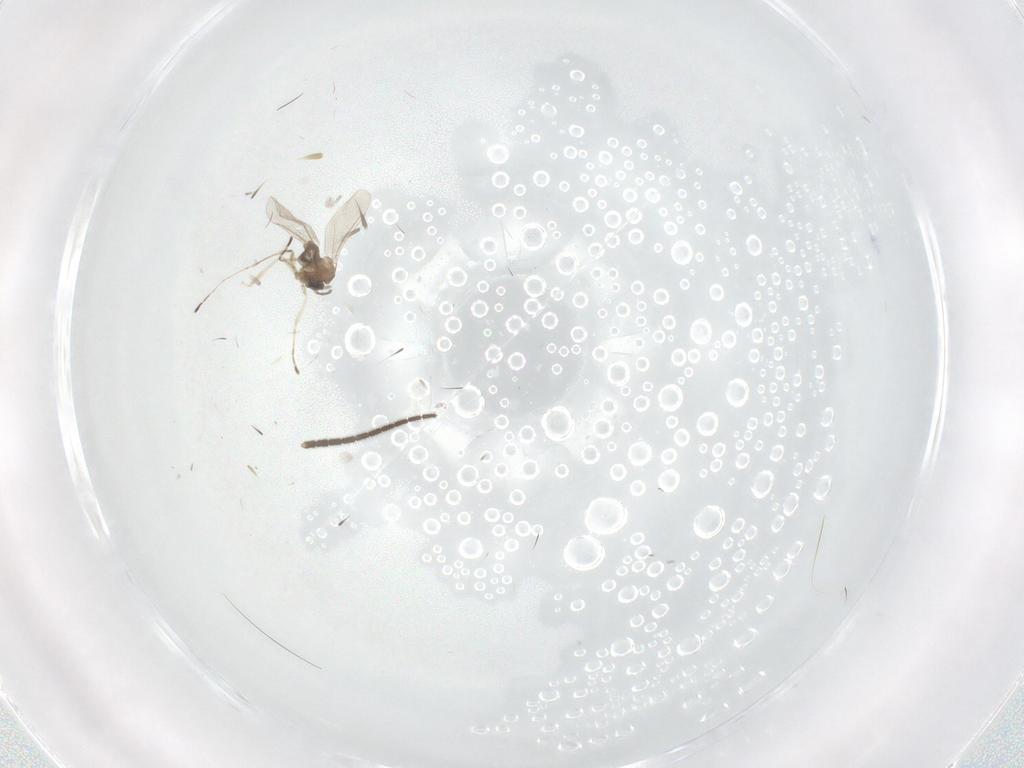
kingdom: Animalia
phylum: Arthropoda
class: Insecta
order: Diptera
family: Cecidomyiidae
